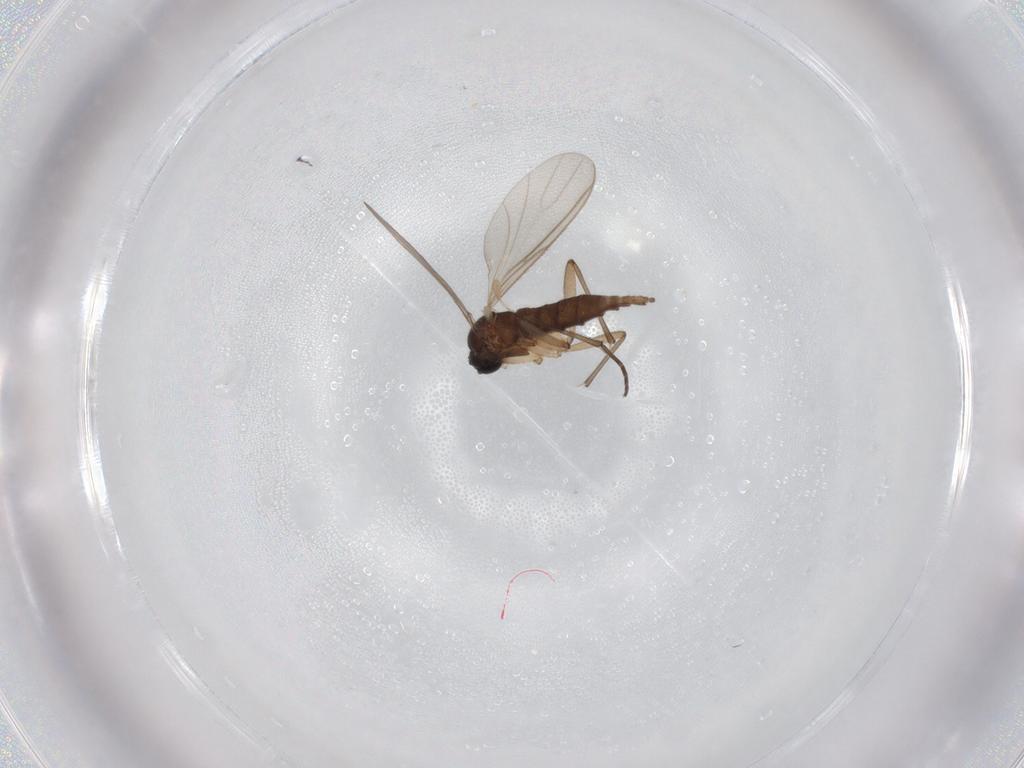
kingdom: Animalia
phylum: Arthropoda
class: Insecta
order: Diptera
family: Sciaridae
